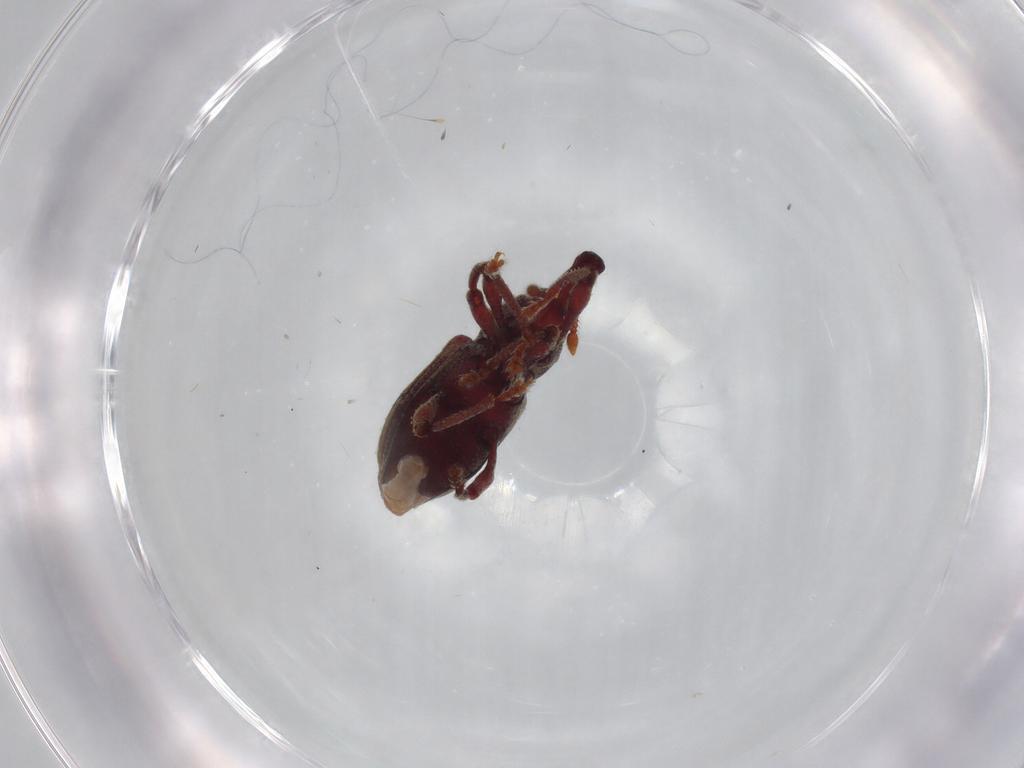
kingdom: Animalia
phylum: Arthropoda
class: Insecta
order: Coleoptera
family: Curculionidae
